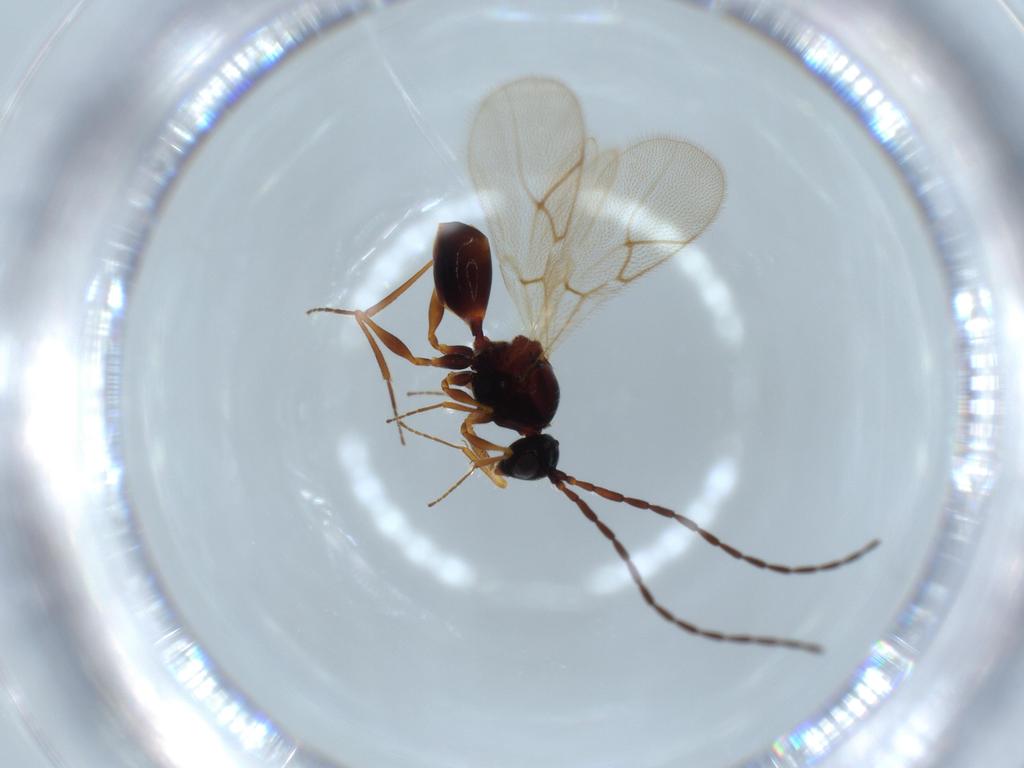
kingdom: Animalia
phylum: Arthropoda
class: Insecta
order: Hymenoptera
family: Figitidae
